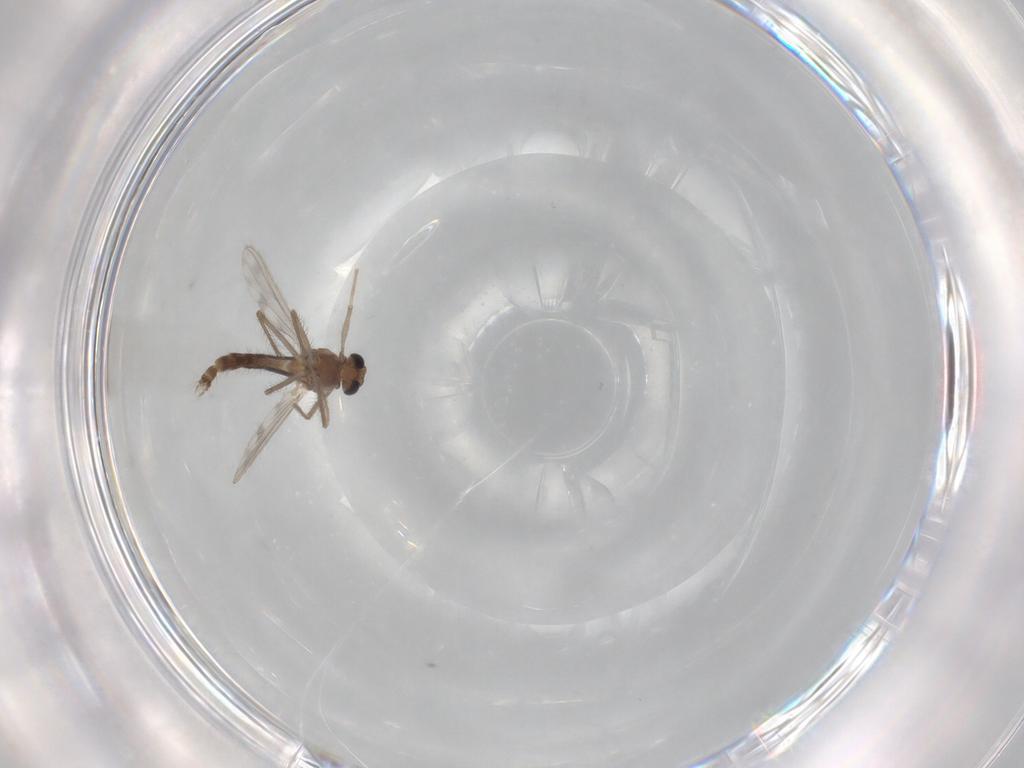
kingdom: Animalia
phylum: Arthropoda
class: Insecta
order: Diptera
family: Chironomidae
